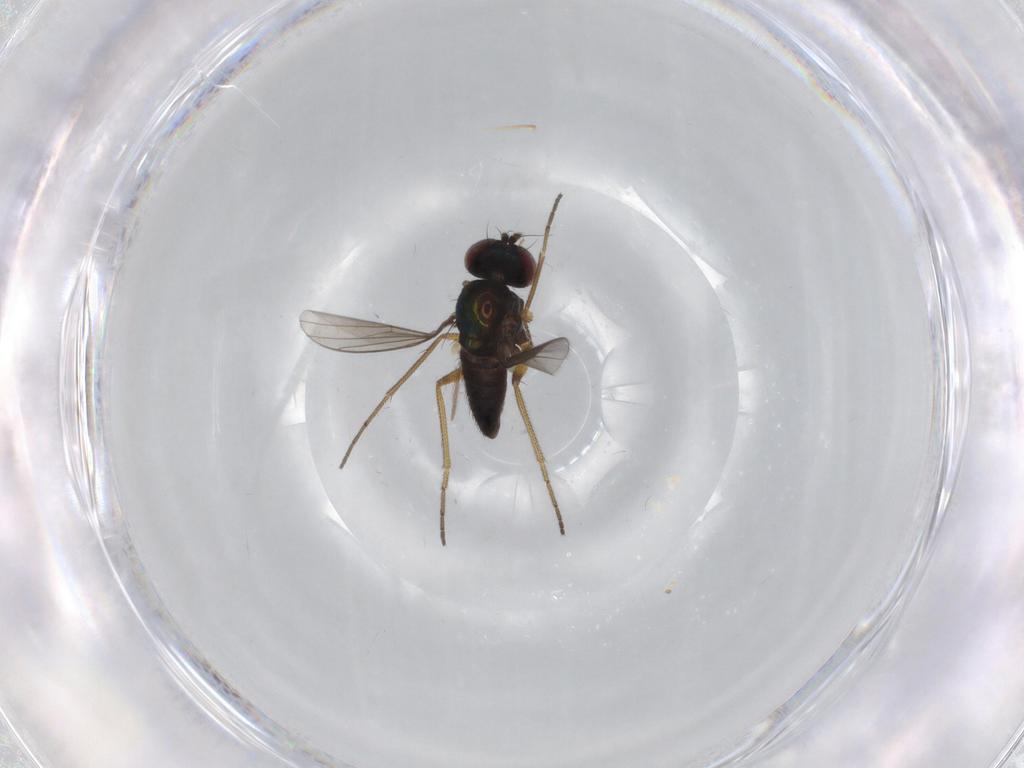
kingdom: Animalia
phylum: Arthropoda
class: Insecta
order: Diptera
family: Dolichopodidae
